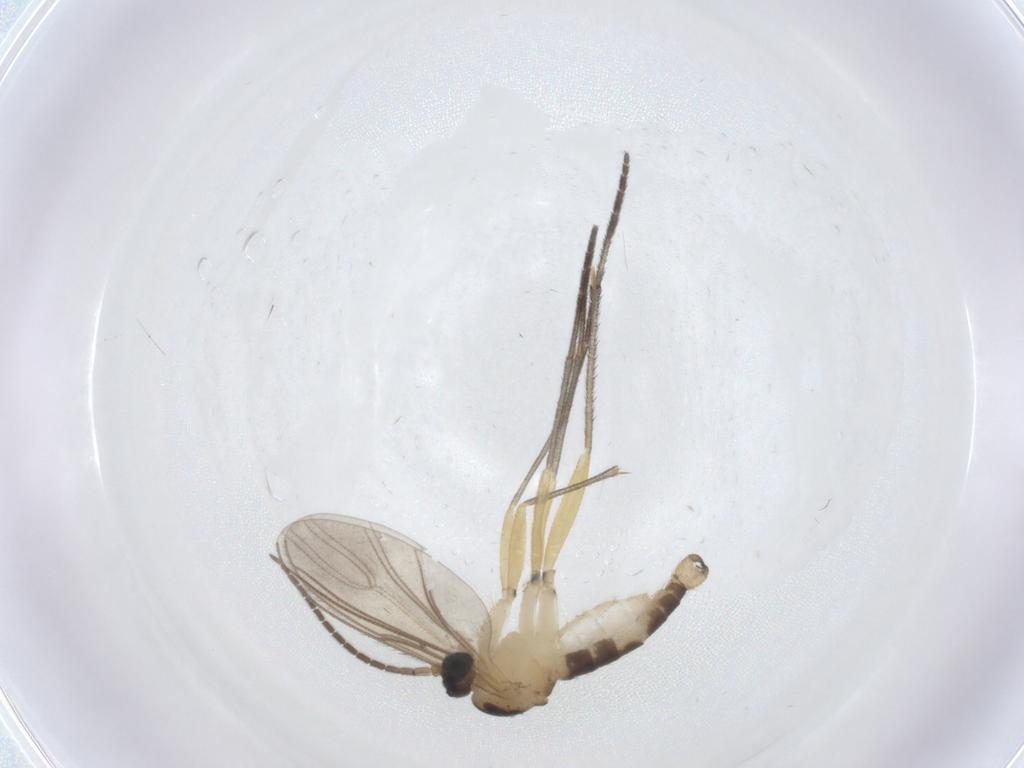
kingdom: Animalia
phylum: Arthropoda
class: Insecta
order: Diptera
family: Sciaridae
